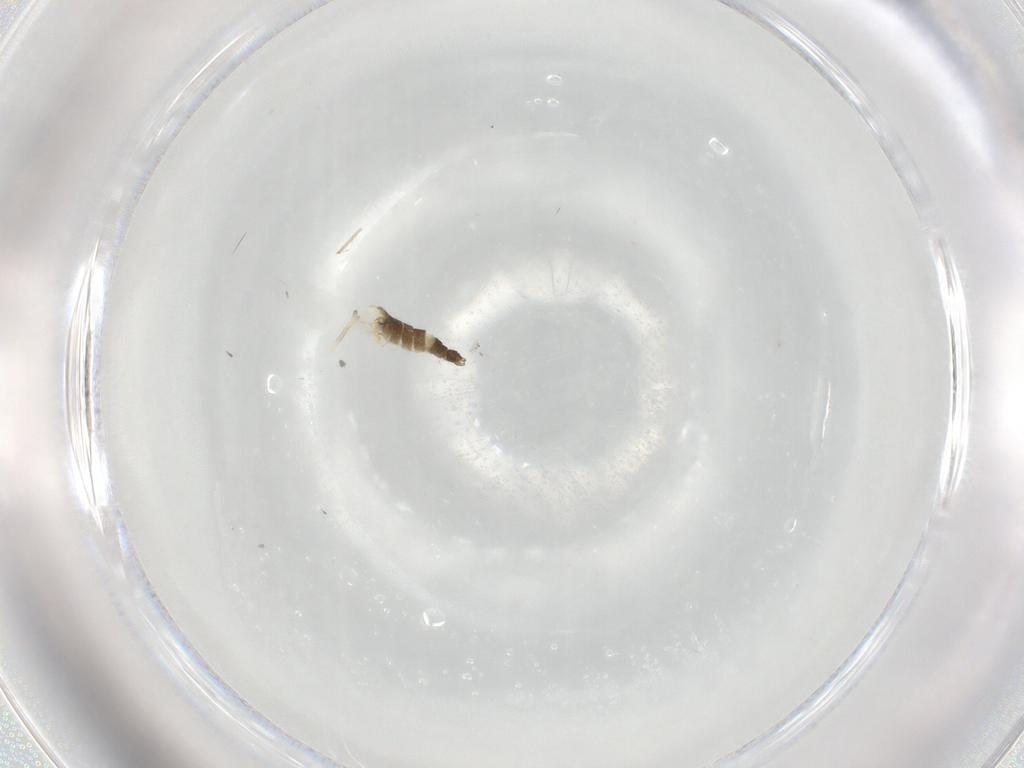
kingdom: Animalia
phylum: Arthropoda
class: Insecta
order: Diptera
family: Chironomidae
